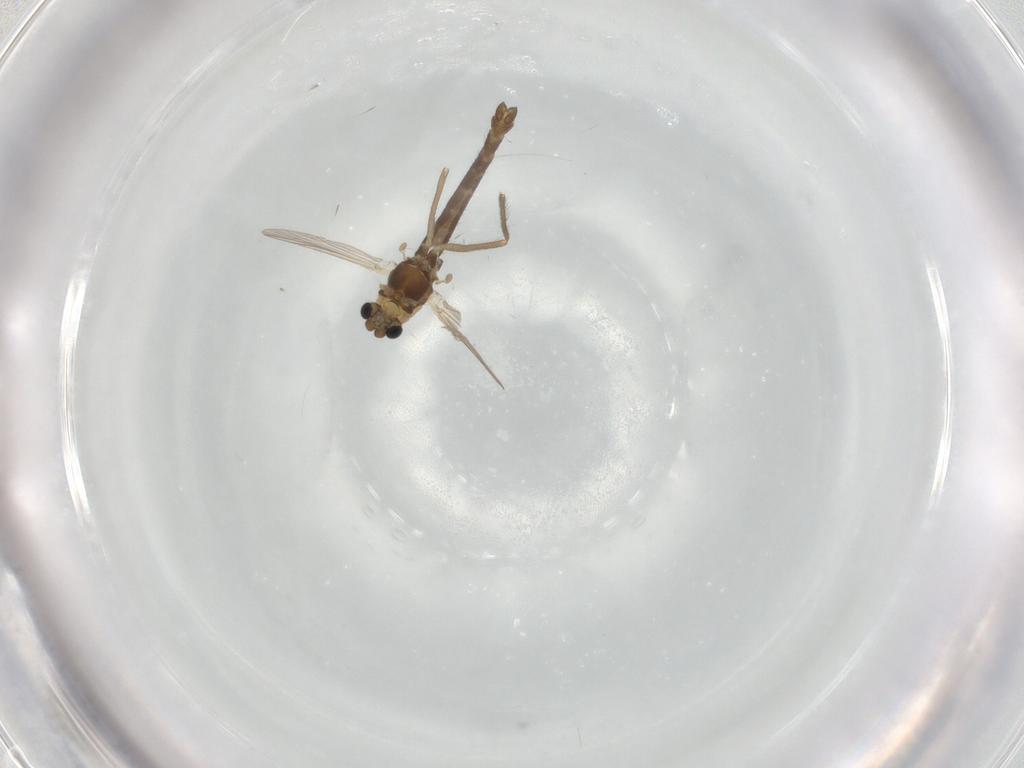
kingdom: Animalia
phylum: Arthropoda
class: Insecta
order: Diptera
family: Chironomidae
